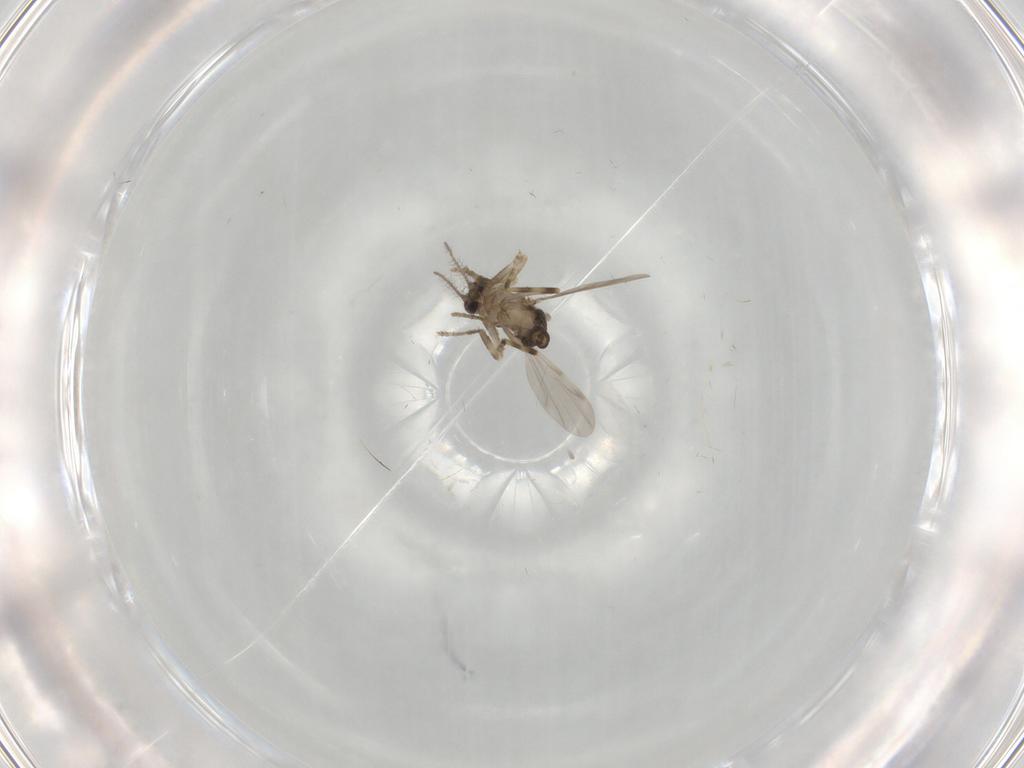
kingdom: Animalia
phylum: Arthropoda
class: Insecta
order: Diptera
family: Ceratopogonidae
